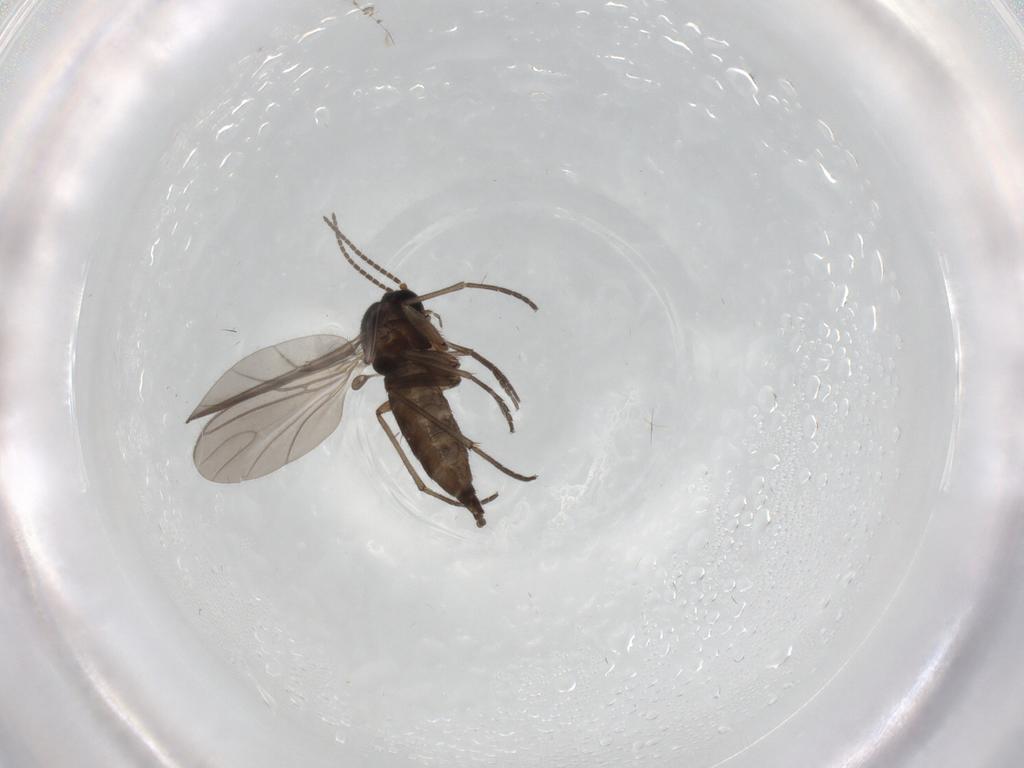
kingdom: Animalia
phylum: Arthropoda
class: Insecta
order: Diptera
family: Sciaridae
